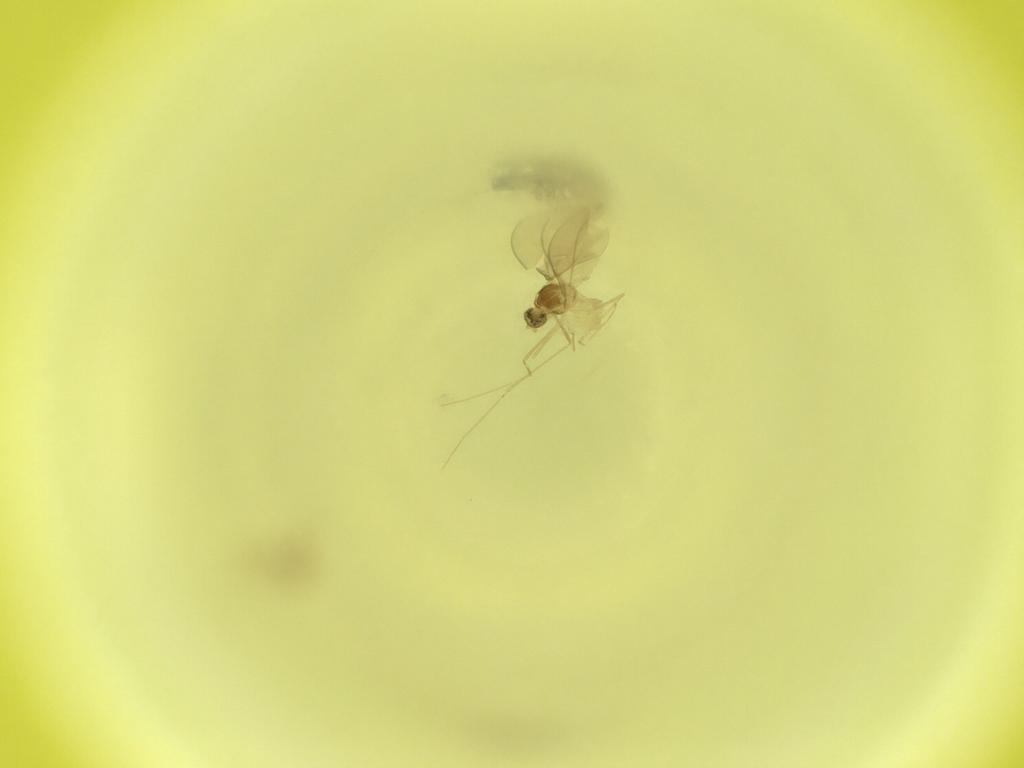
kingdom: Animalia
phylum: Arthropoda
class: Insecta
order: Diptera
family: Cecidomyiidae
